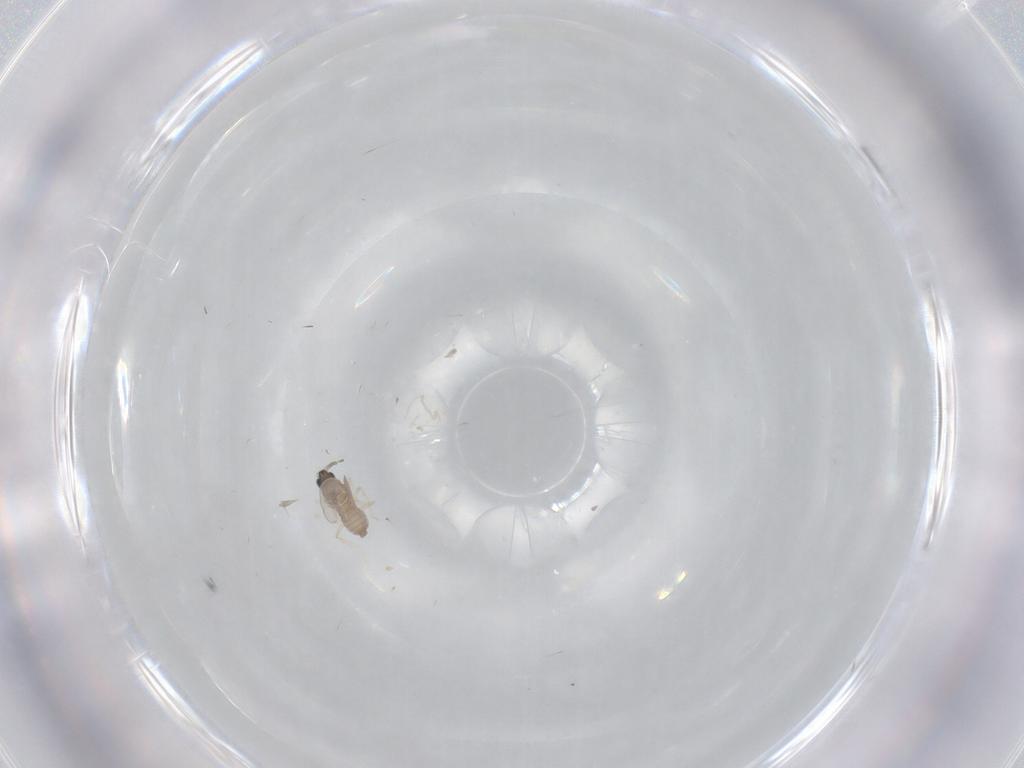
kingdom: Animalia
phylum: Arthropoda
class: Insecta
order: Diptera
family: Cecidomyiidae
